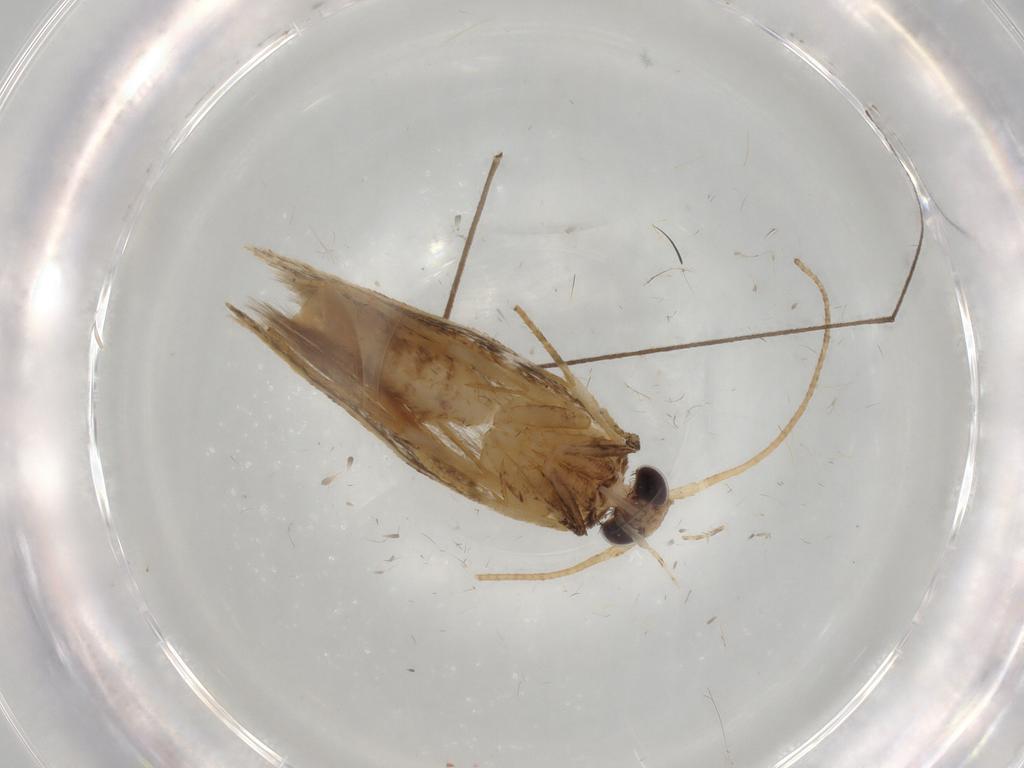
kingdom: Animalia
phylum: Arthropoda
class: Insecta
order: Lepidoptera
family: Gelechiidae
